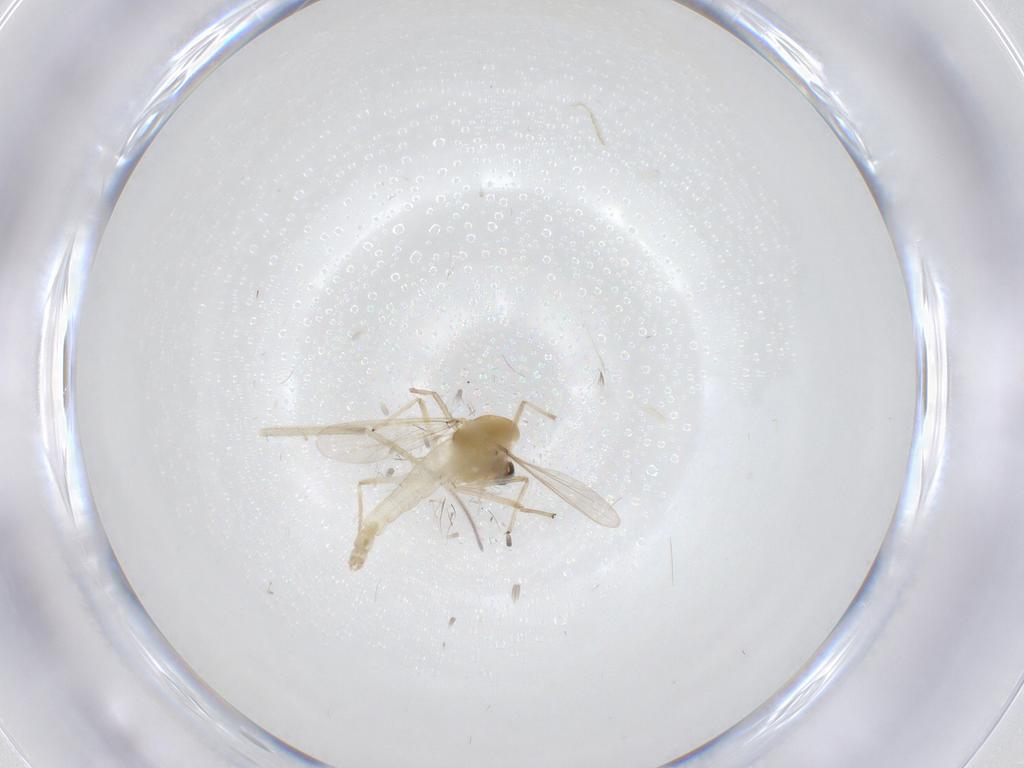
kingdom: Animalia
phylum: Arthropoda
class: Insecta
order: Diptera
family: Chironomidae
